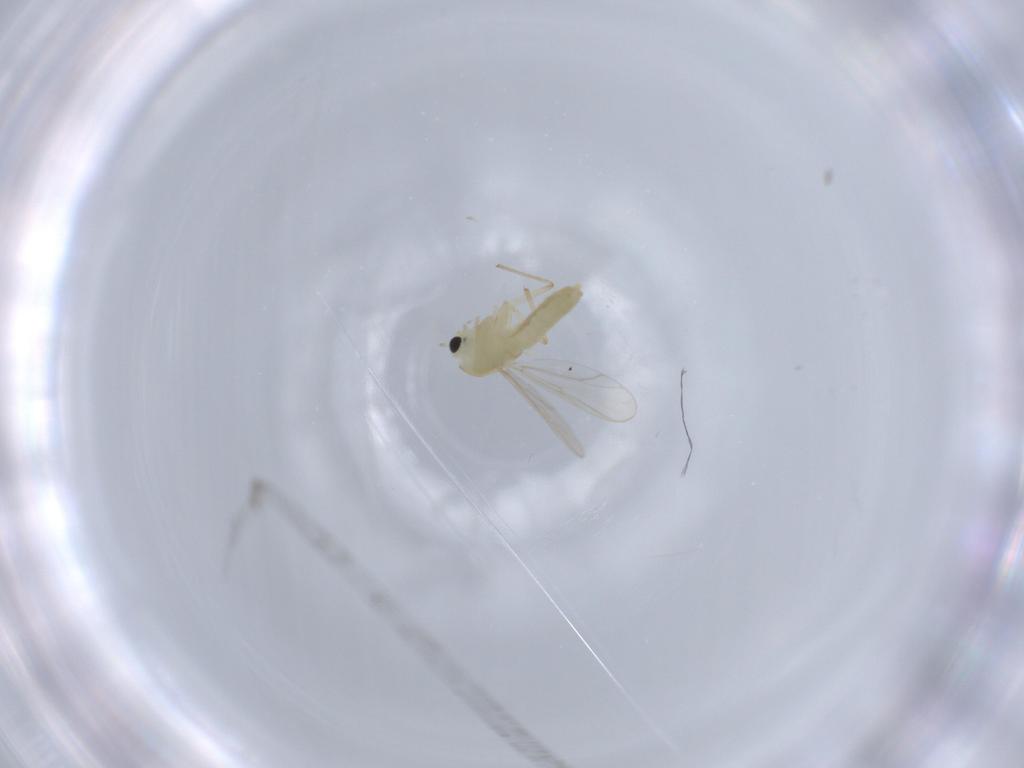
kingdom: Animalia
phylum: Arthropoda
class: Insecta
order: Diptera
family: Chironomidae
